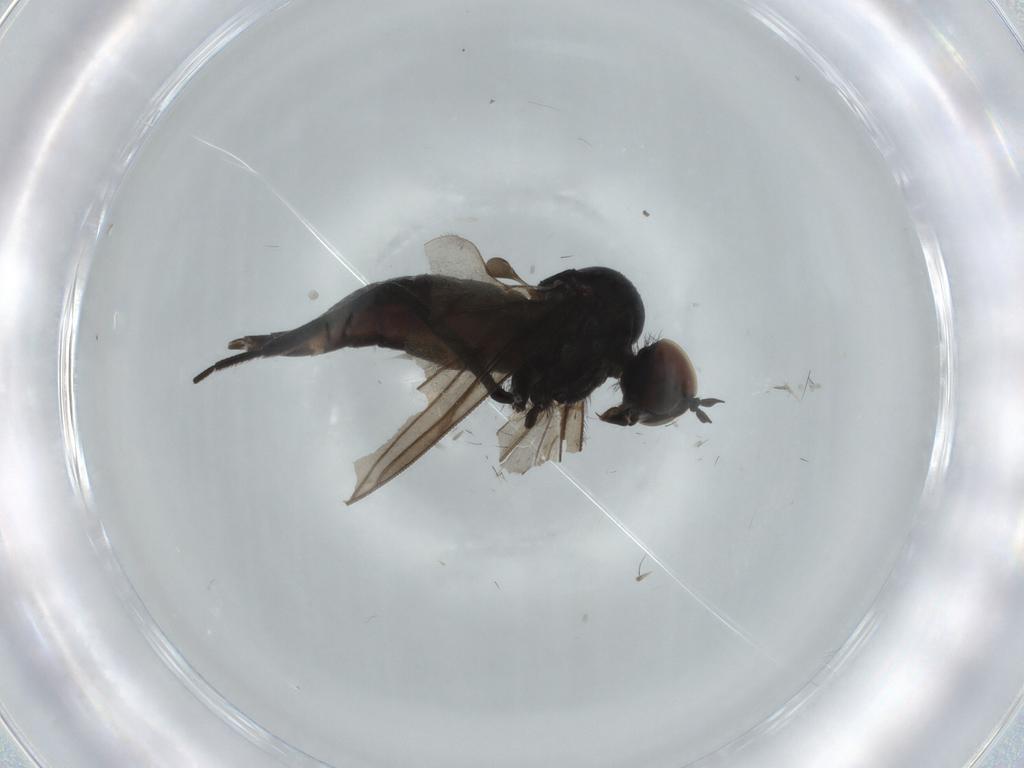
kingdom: Animalia
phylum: Arthropoda
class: Insecta
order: Diptera
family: Hybotidae
